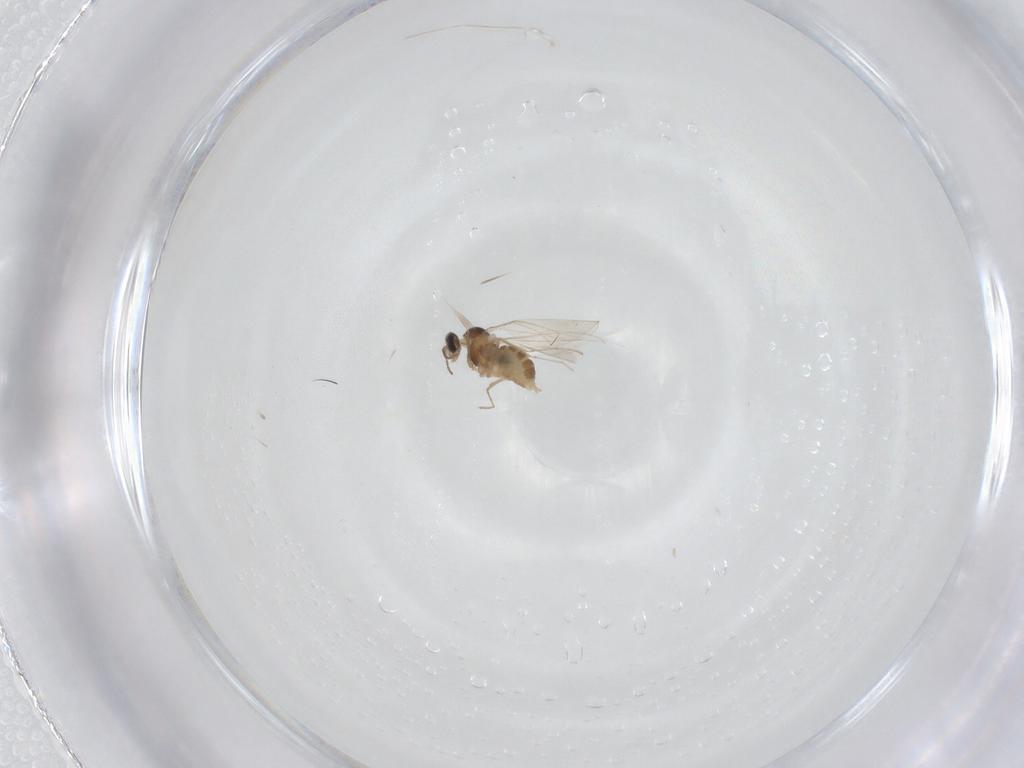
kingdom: Animalia
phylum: Arthropoda
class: Insecta
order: Diptera
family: Cecidomyiidae
